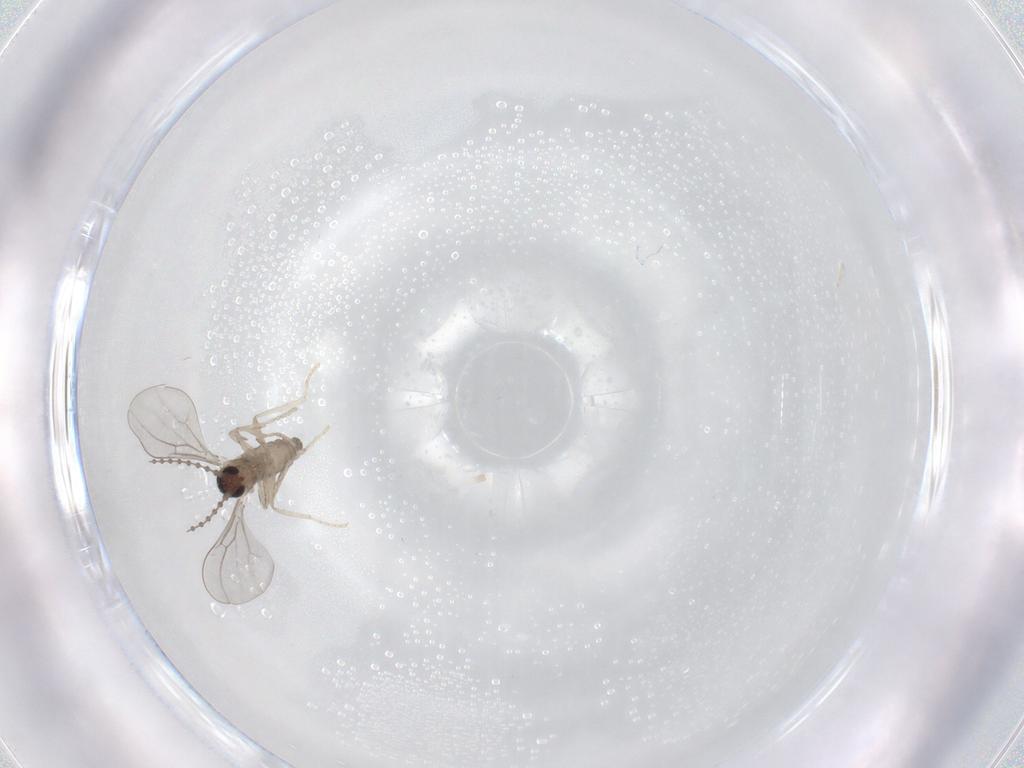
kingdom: Animalia
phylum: Arthropoda
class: Insecta
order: Diptera
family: Cecidomyiidae
